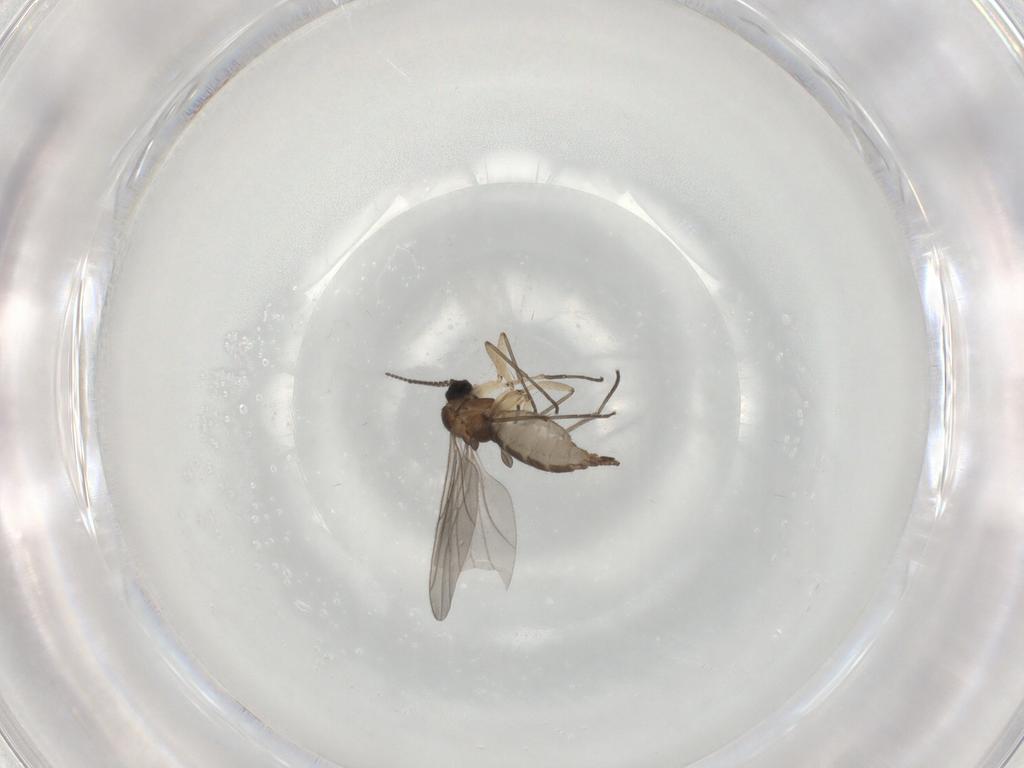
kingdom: Animalia
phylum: Arthropoda
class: Insecta
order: Diptera
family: Sciaridae
